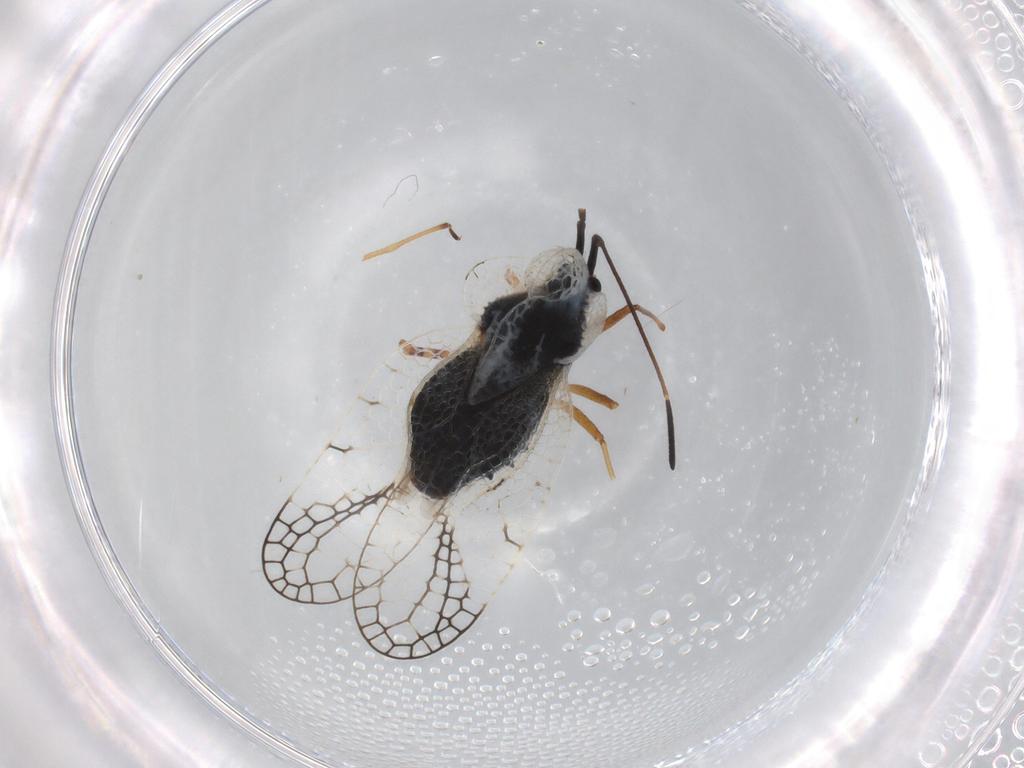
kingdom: Animalia
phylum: Arthropoda
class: Insecta
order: Hemiptera
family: Tingidae
